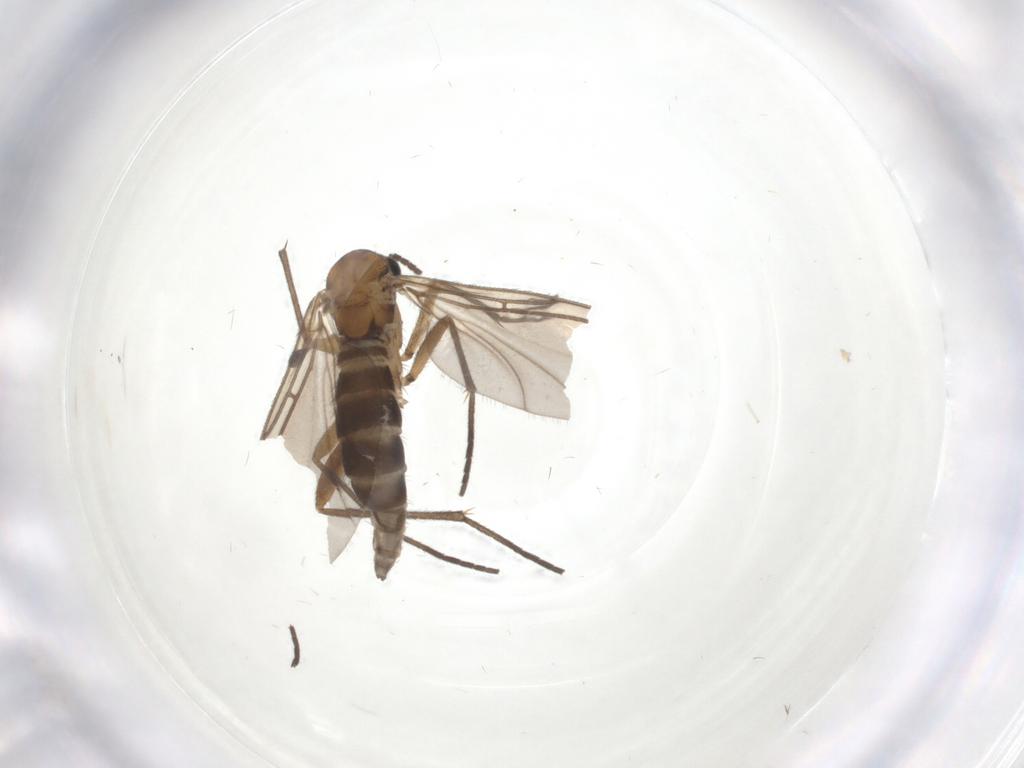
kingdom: Animalia
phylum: Arthropoda
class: Insecta
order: Diptera
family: Sciaridae
